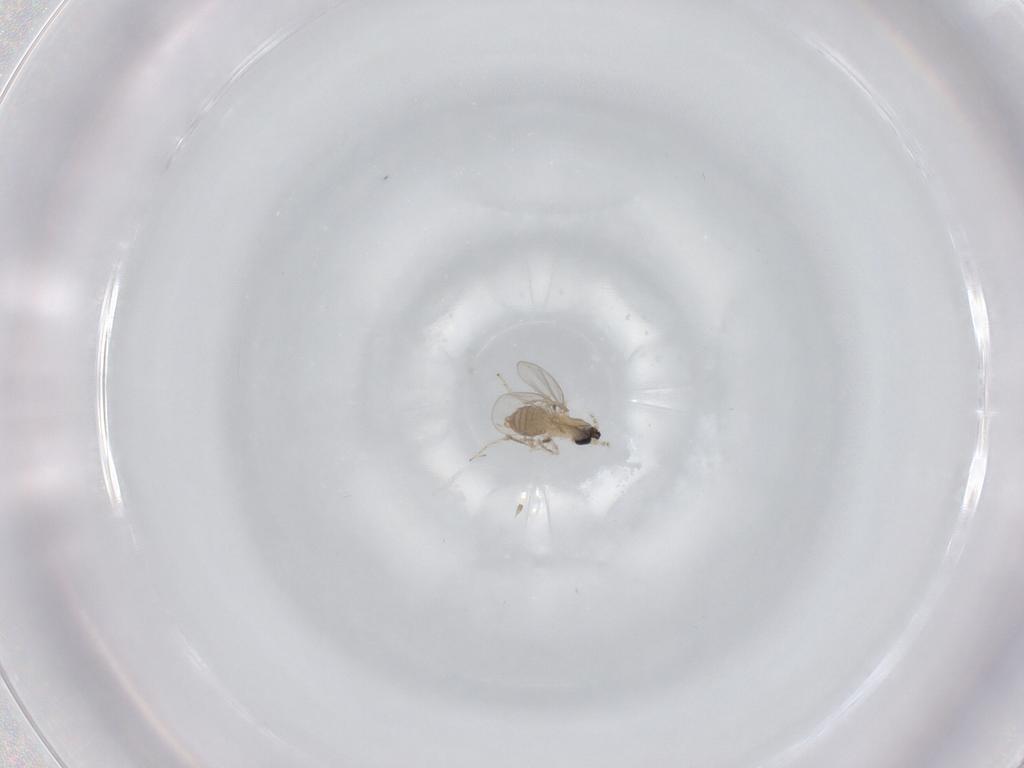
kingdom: Animalia
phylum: Arthropoda
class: Insecta
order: Diptera
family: Cecidomyiidae
